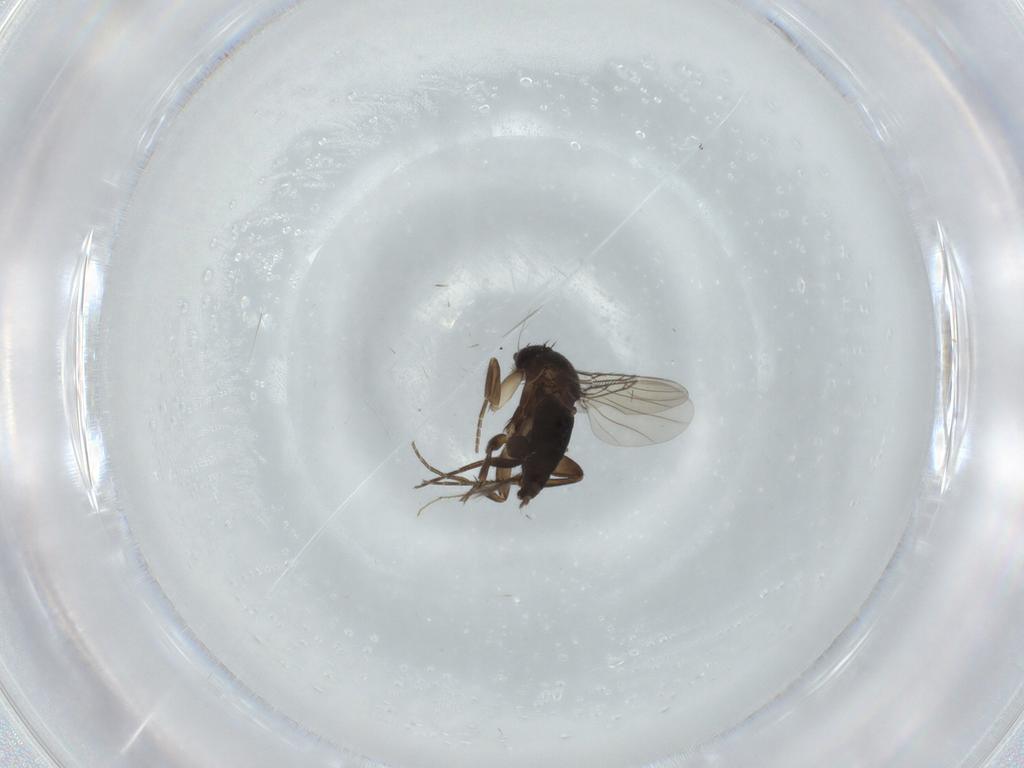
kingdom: Animalia
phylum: Arthropoda
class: Insecta
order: Diptera
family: Phoridae
